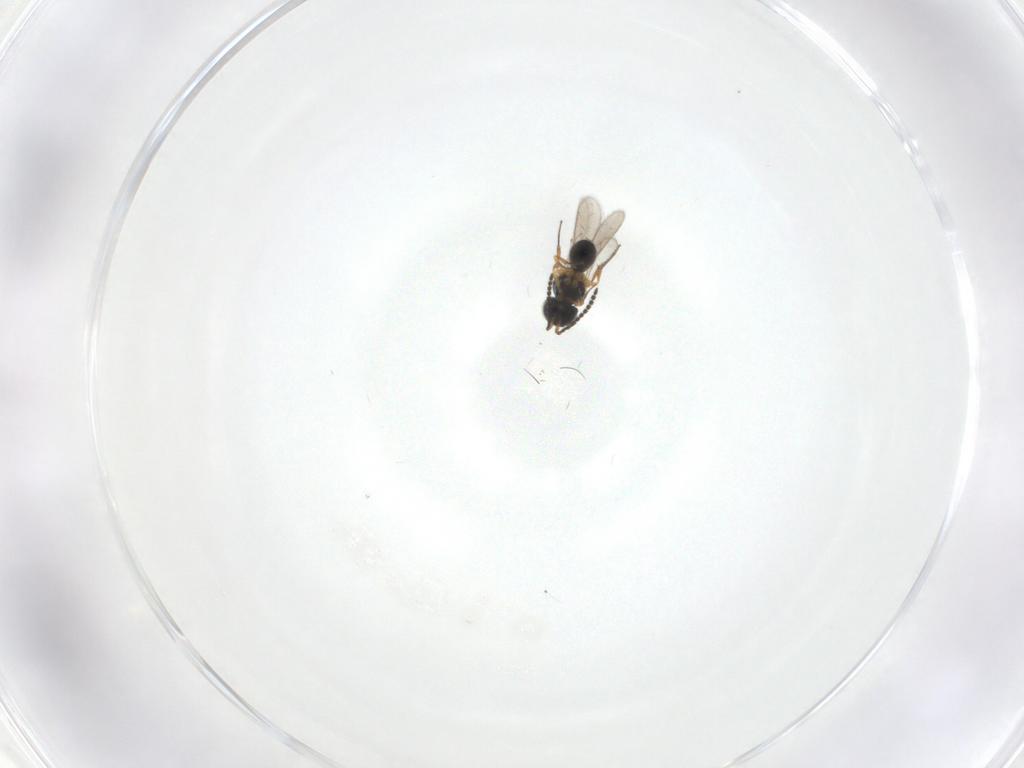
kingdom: Animalia
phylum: Arthropoda
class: Insecta
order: Hymenoptera
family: Scelionidae
